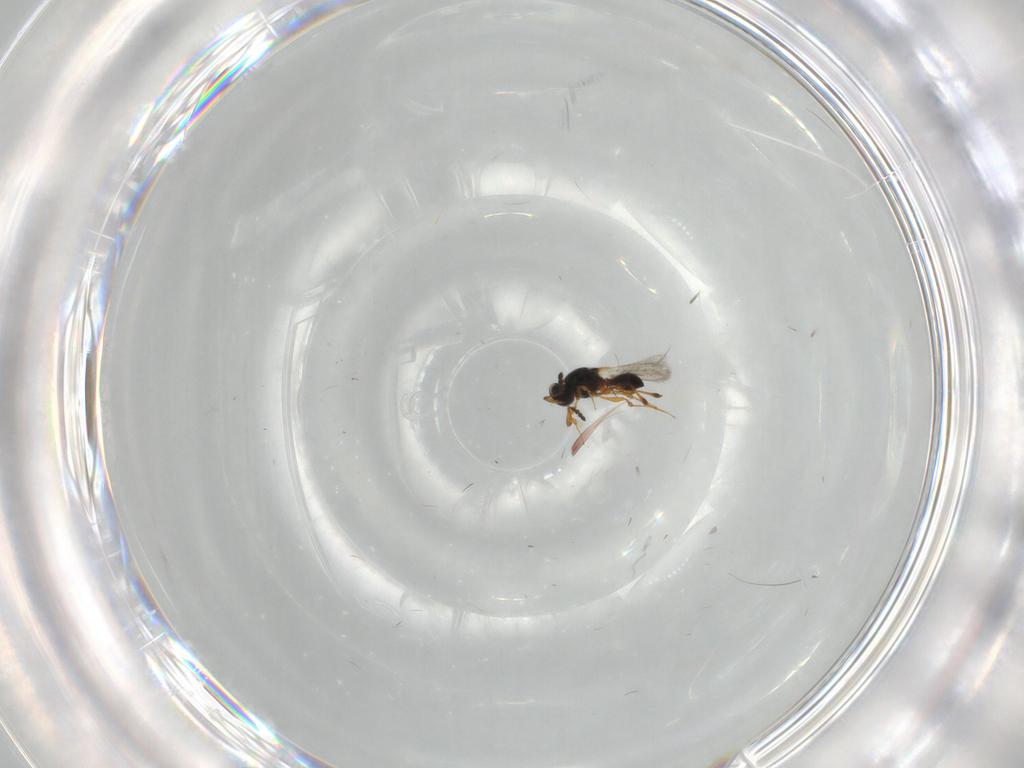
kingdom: Animalia
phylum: Arthropoda
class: Insecta
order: Hymenoptera
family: Platygastridae
